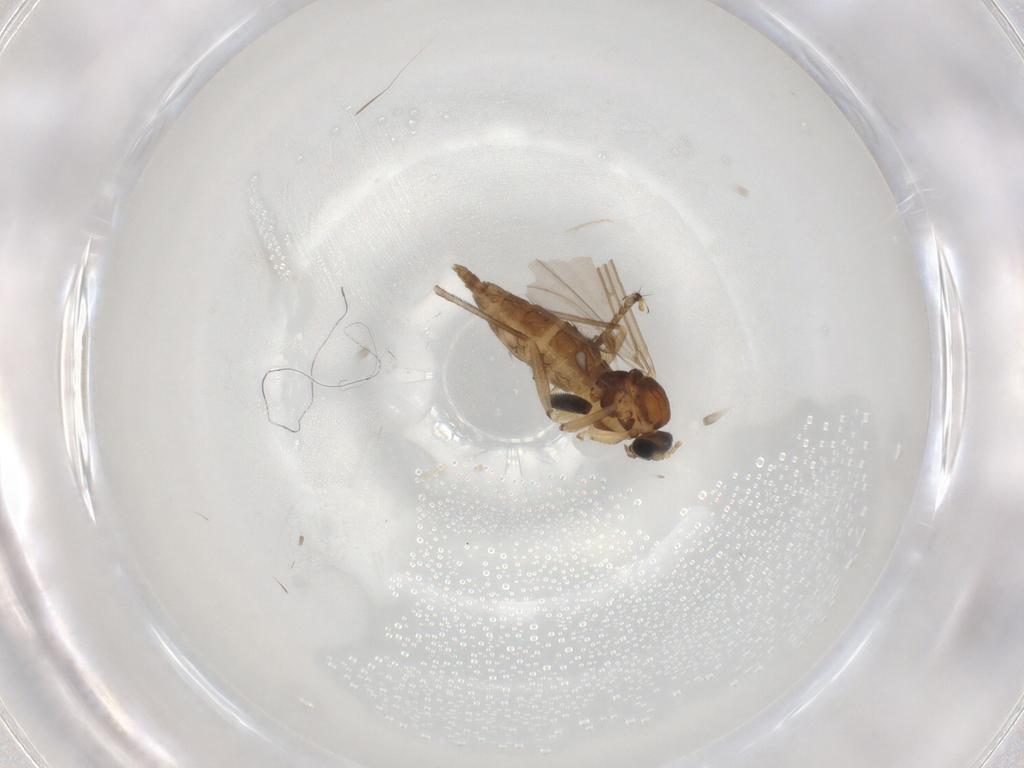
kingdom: Animalia
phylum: Arthropoda
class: Insecta
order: Diptera
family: Sciaridae
